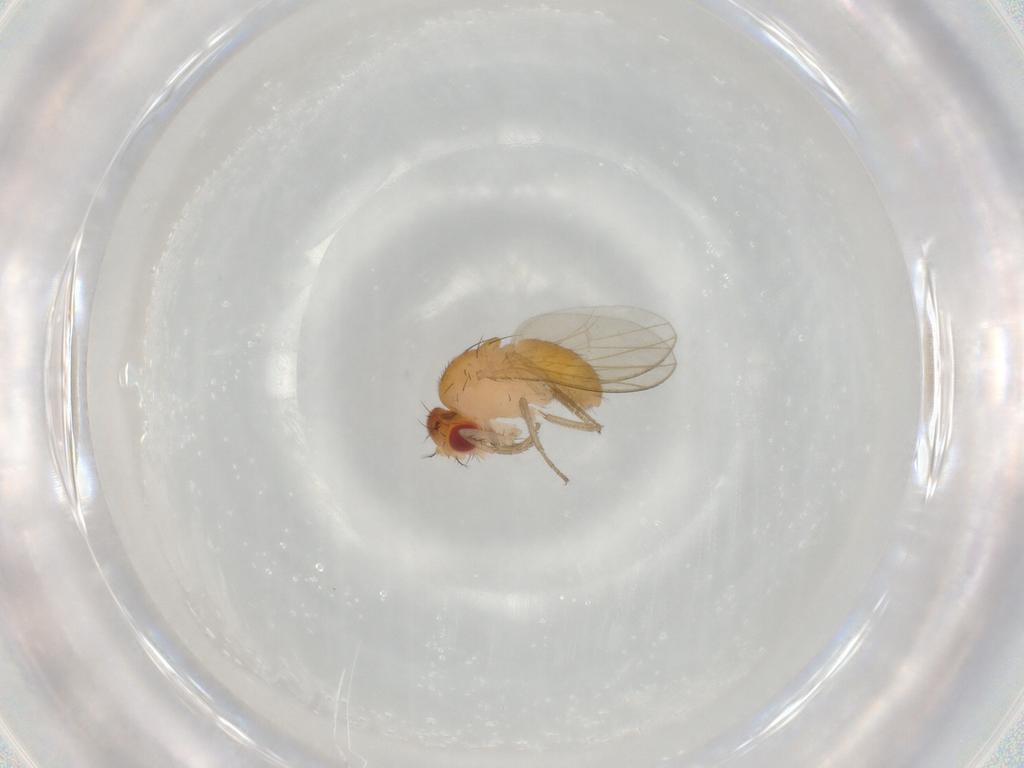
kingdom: Animalia
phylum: Arthropoda
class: Insecta
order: Diptera
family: Drosophilidae
